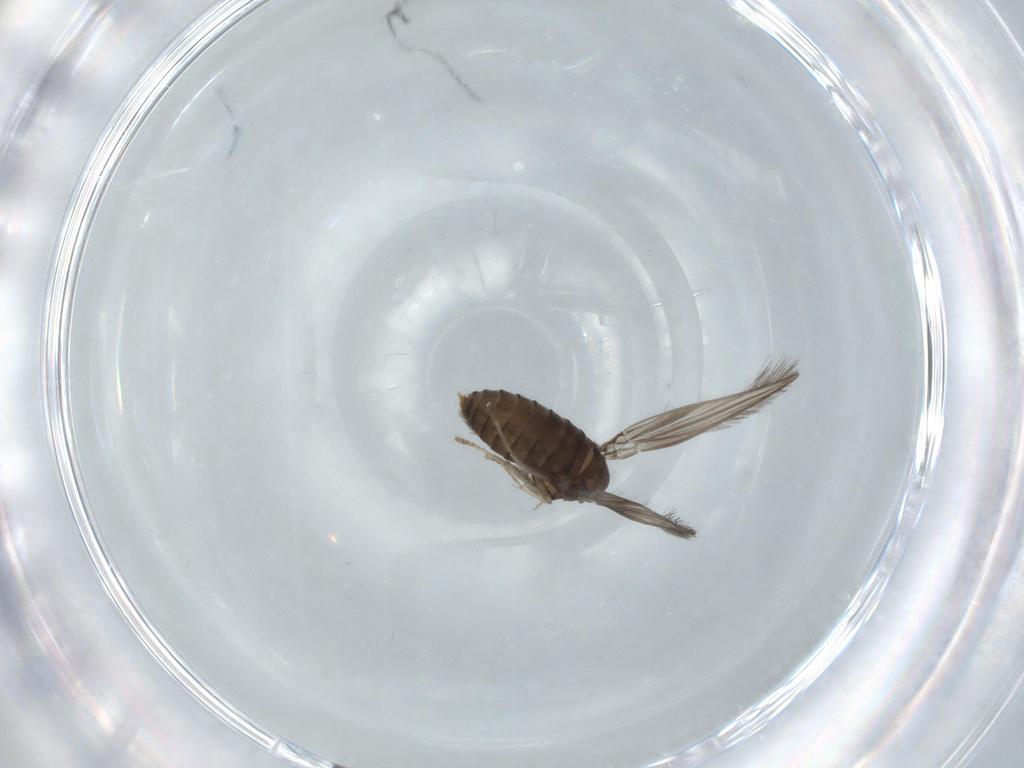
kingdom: Animalia
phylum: Arthropoda
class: Insecta
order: Diptera
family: Psychodidae
